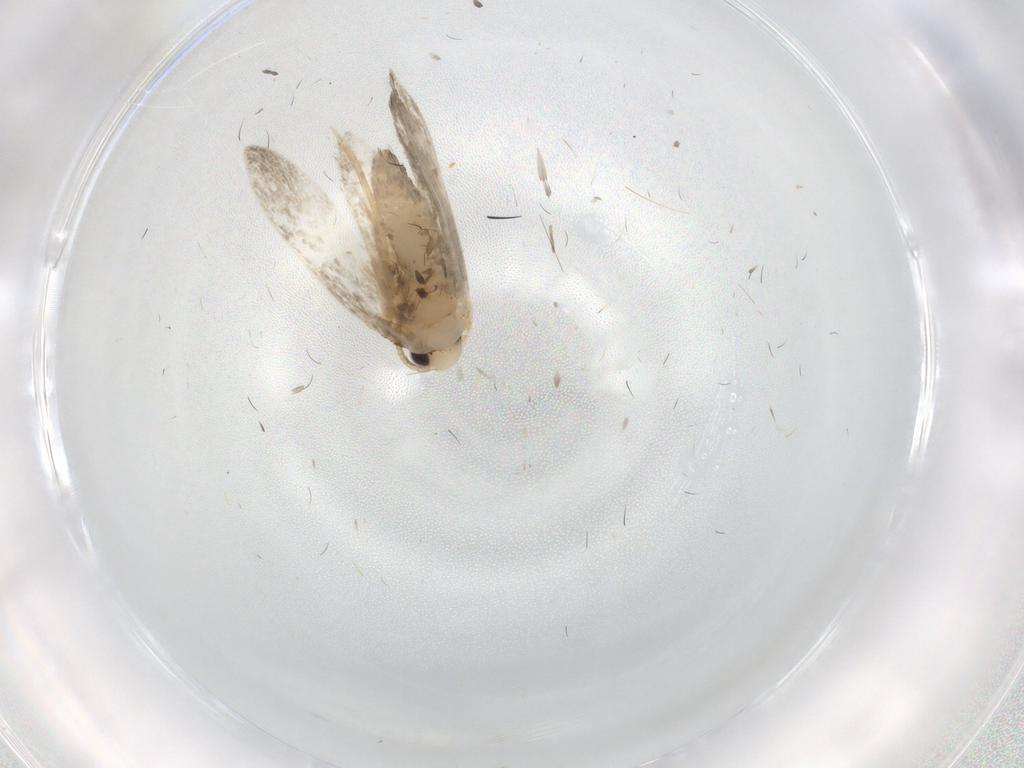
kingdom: Animalia
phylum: Arthropoda
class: Insecta
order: Lepidoptera
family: Psychidae
